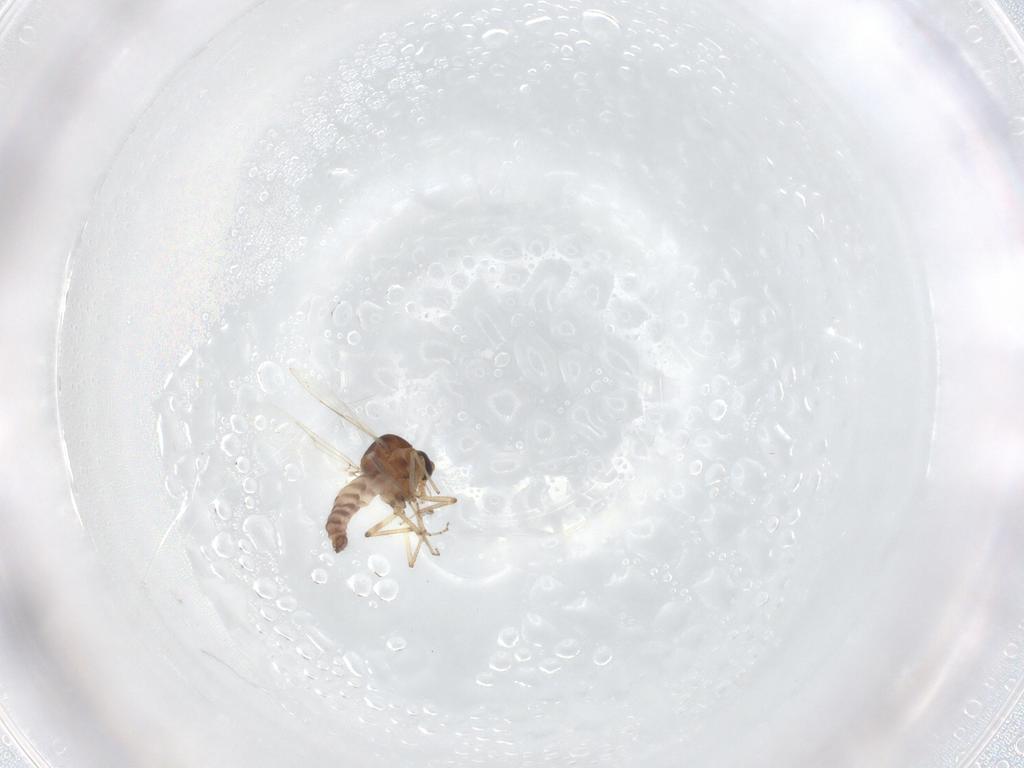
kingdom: Animalia
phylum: Arthropoda
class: Insecta
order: Diptera
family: Ceratopogonidae
